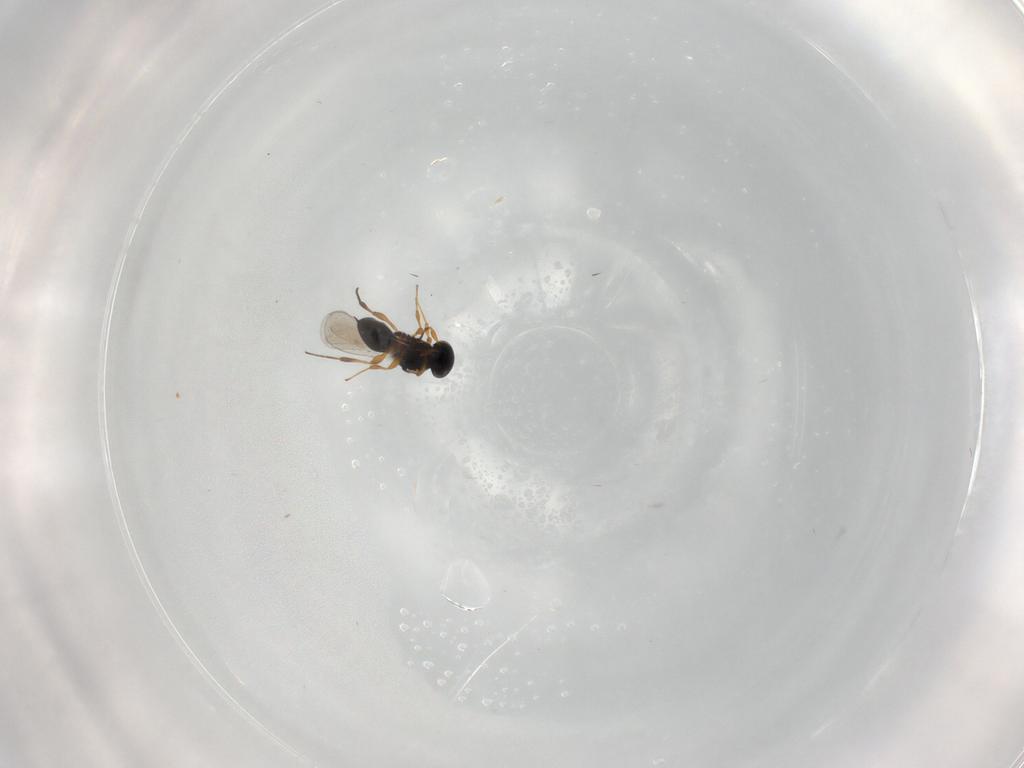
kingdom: Animalia
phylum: Arthropoda
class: Insecta
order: Hymenoptera
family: Platygastridae
